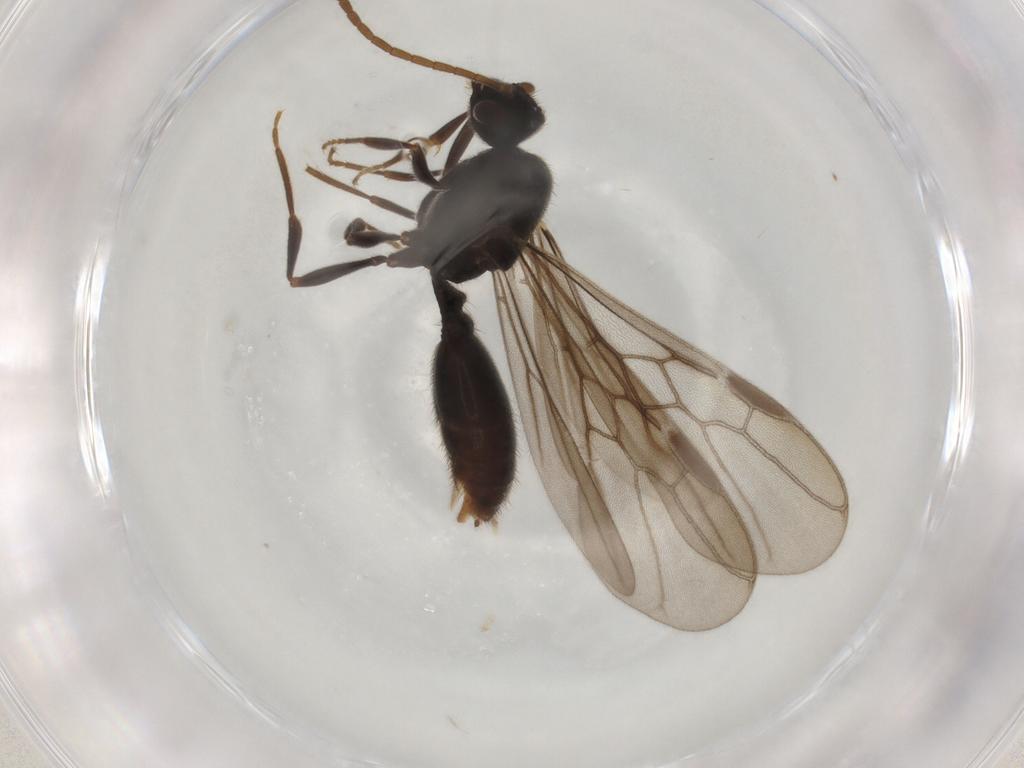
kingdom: Animalia
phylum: Arthropoda
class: Insecta
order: Hymenoptera
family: Formicidae
